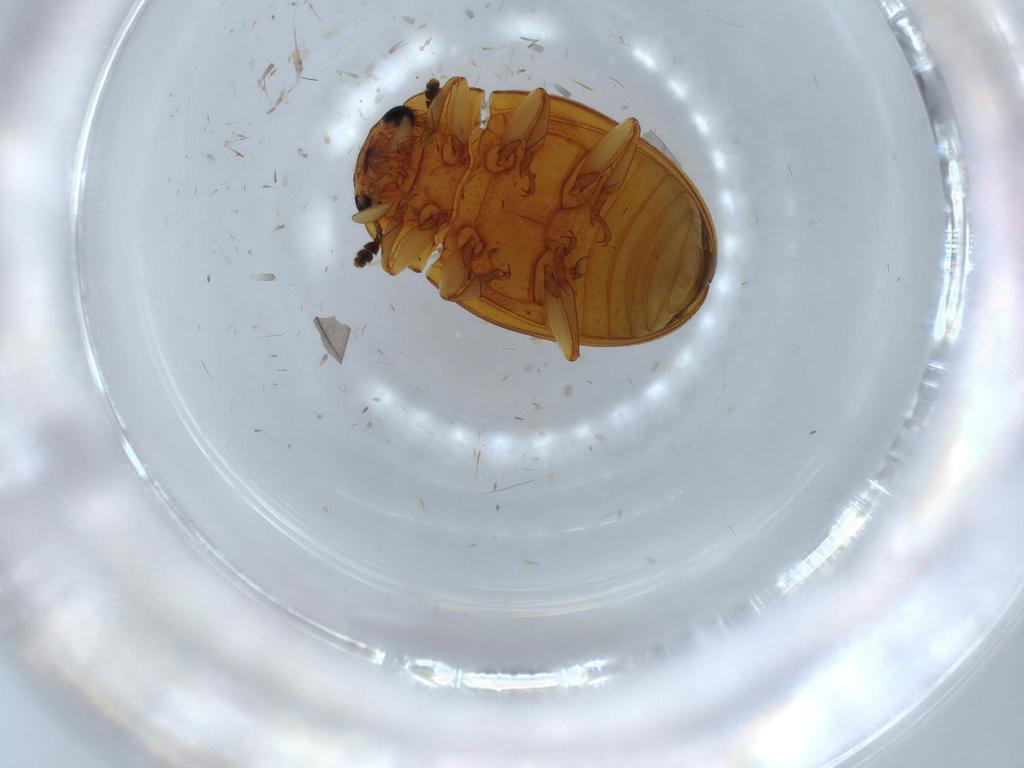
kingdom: Animalia
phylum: Arthropoda
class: Insecta
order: Coleoptera
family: Erotylidae
